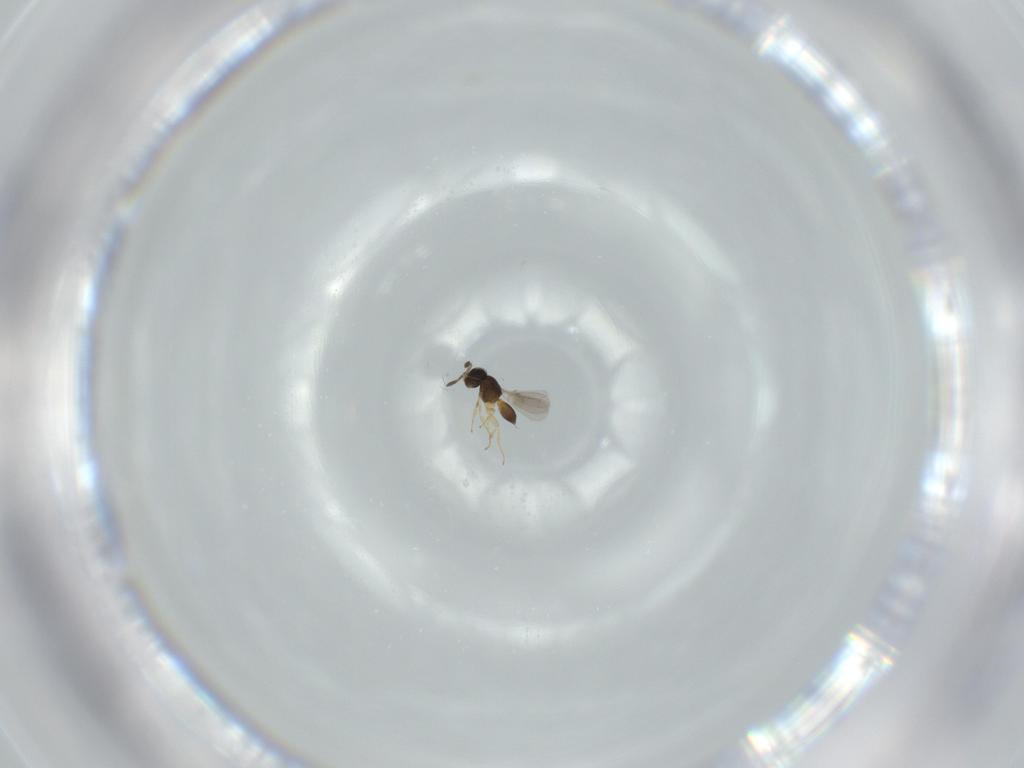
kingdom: Animalia
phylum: Arthropoda
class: Insecta
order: Hymenoptera
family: Scelionidae
